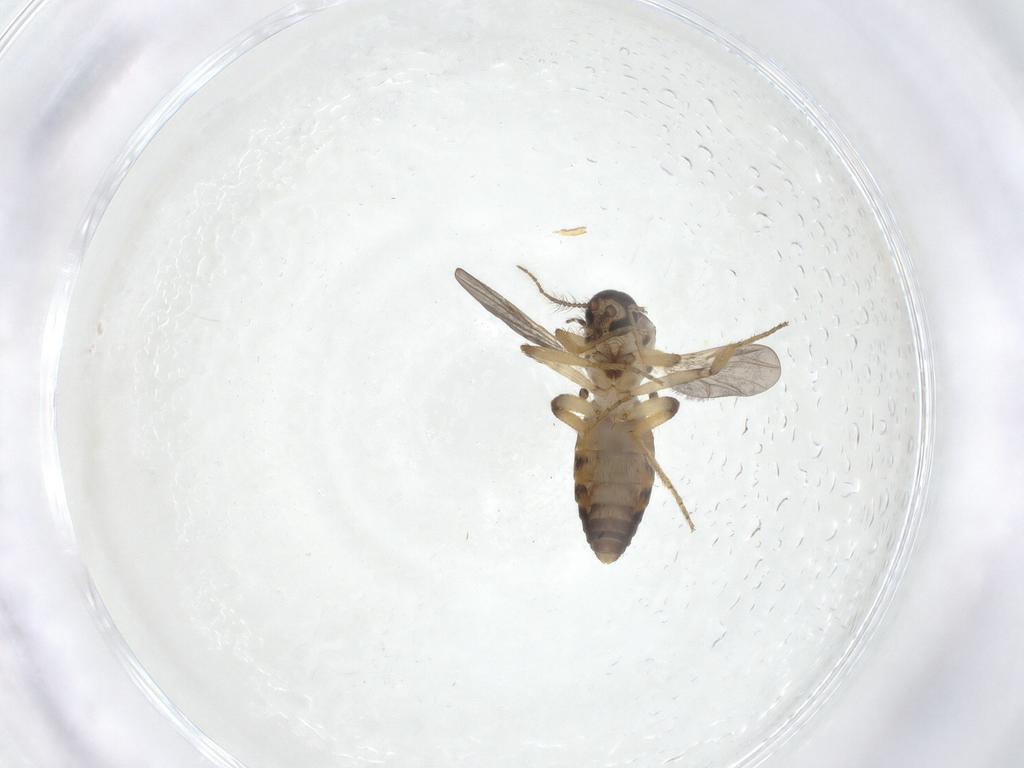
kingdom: Animalia
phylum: Arthropoda
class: Insecta
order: Diptera
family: Ceratopogonidae
